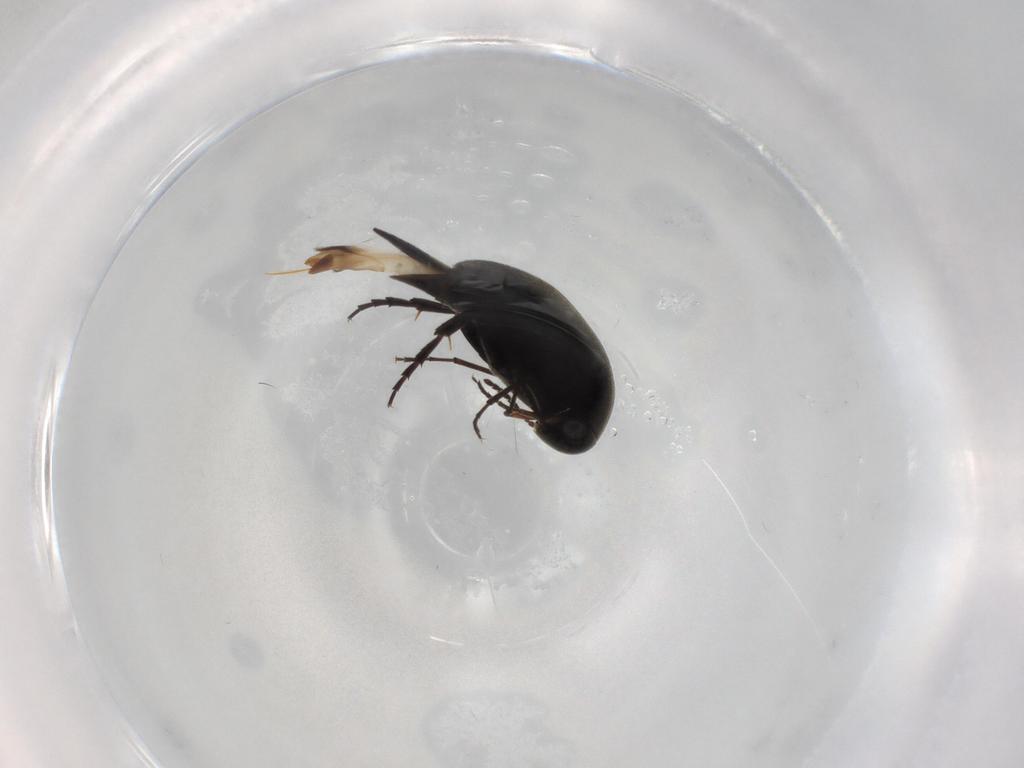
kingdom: Animalia
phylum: Arthropoda
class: Insecta
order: Coleoptera
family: Mordellidae
